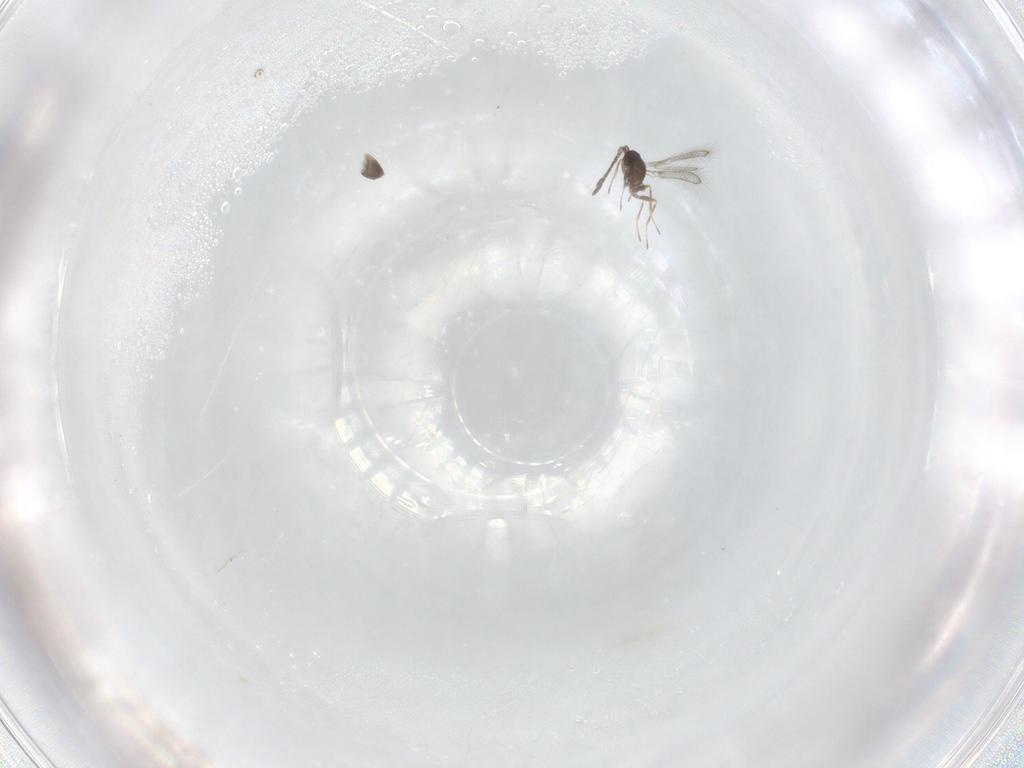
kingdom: Animalia
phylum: Arthropoda
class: Insecta
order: Hymenoptera
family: Mymaridae
